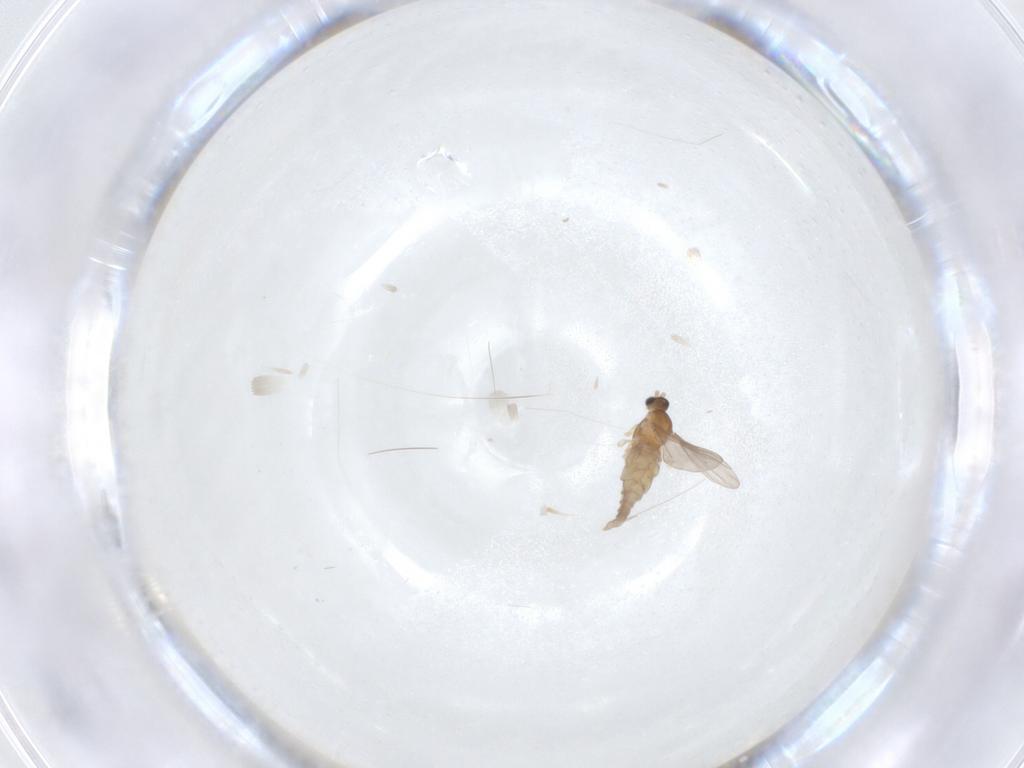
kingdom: Animalia
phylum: Arthropoda
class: Insecta
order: Diptera
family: Cecidomyiidae
